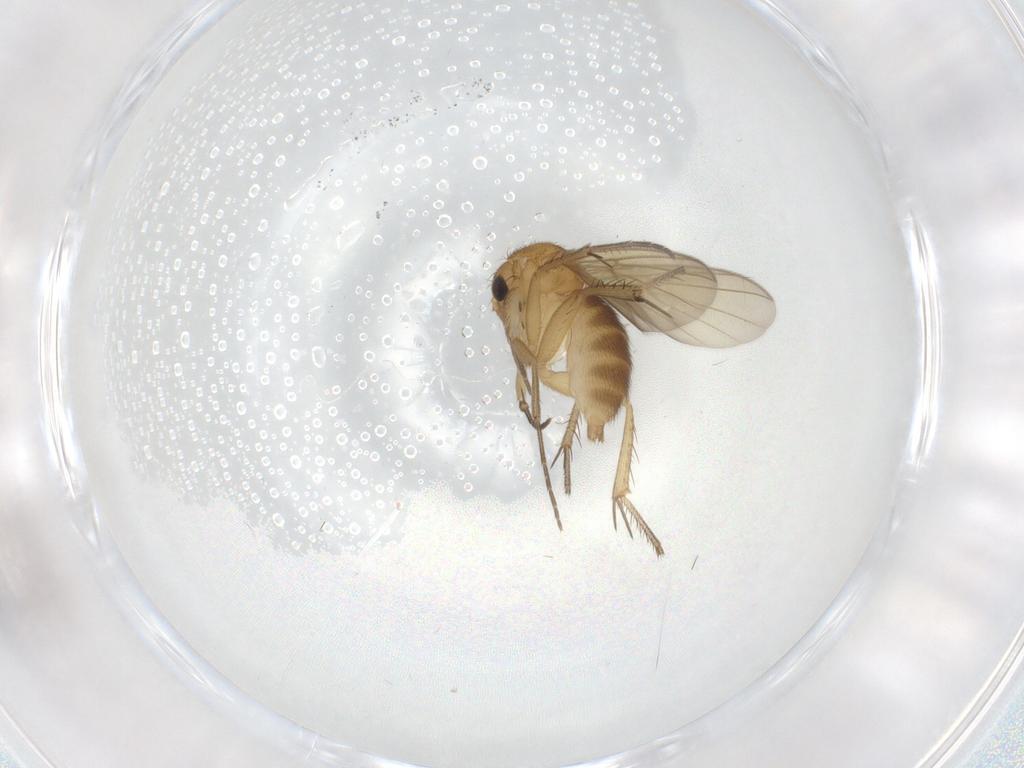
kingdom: Animalia
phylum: Arthropoda
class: Insecta
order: Diptera
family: Mycetophilidae
